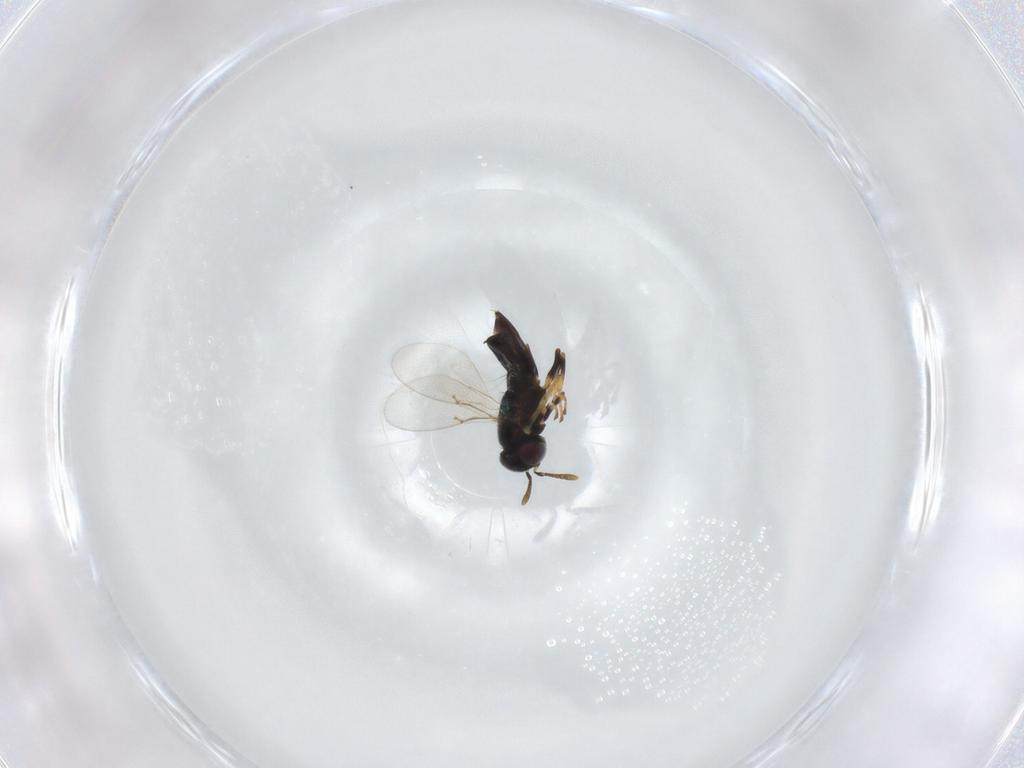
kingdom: Animalia
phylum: Arthropoda
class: Insecta
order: Hymenoptera
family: Encyrtidae
